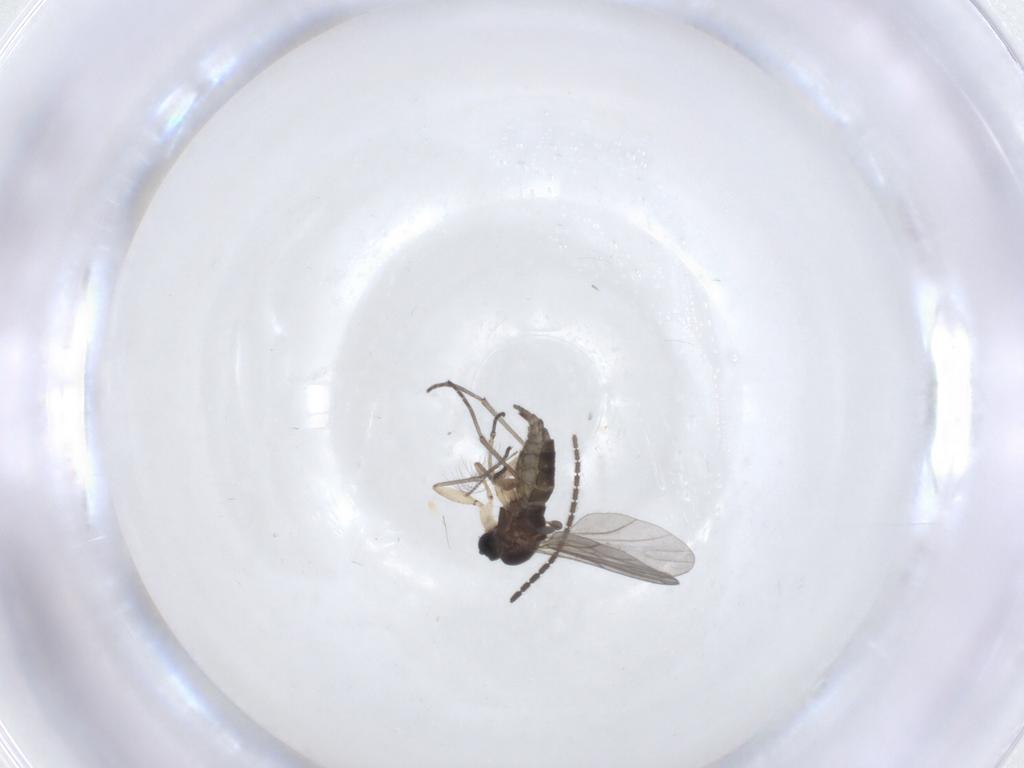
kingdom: Animalia
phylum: Arthropoda
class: Insecta
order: Diptera
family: Sciaridae
